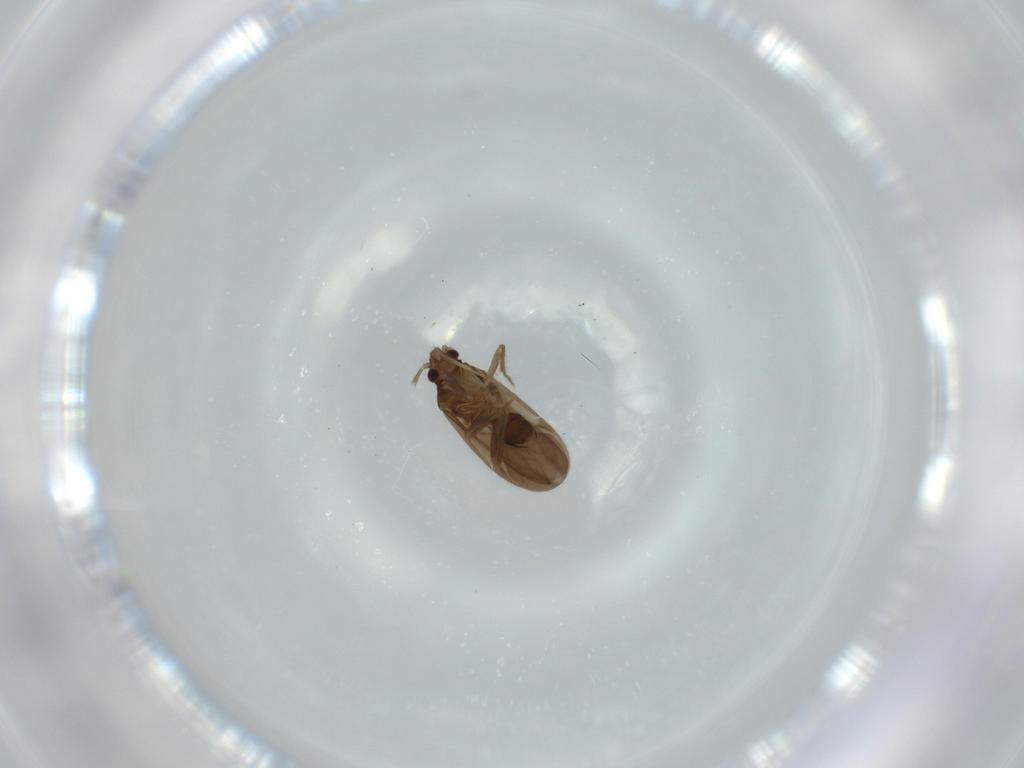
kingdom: Animalia
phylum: Arthropoda
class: Insecta
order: Hemiptera
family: Ceratocombidae
